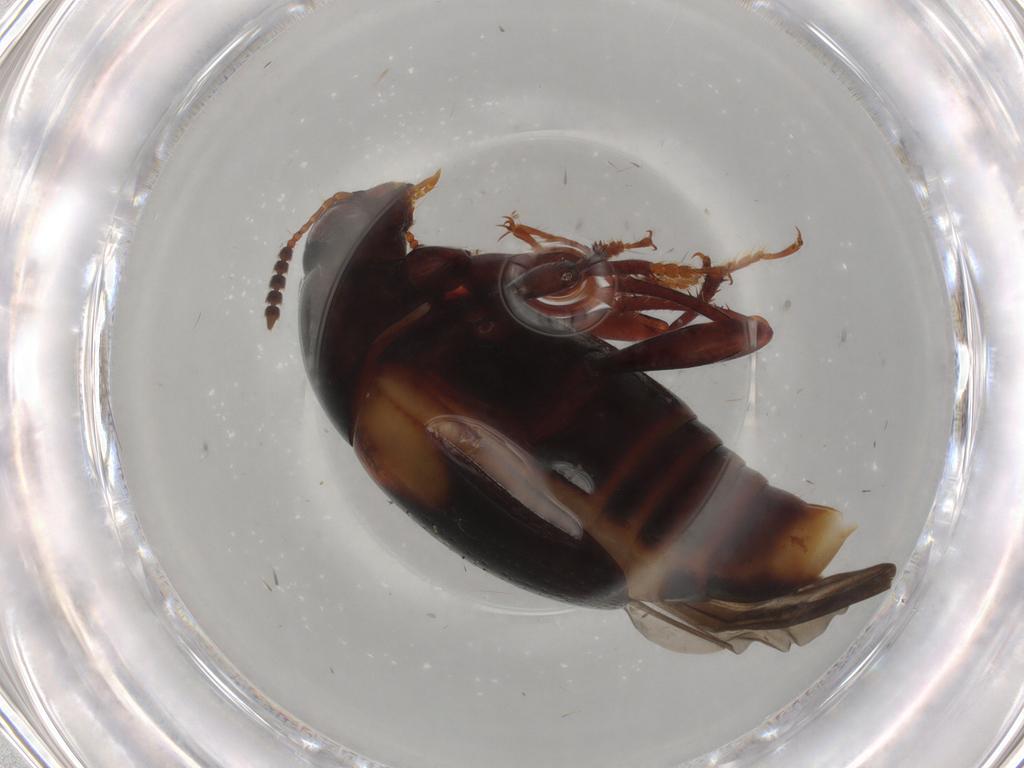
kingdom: Animalia
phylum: Arthropoda
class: Insecta
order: Coleoptera
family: Staphylinidae
